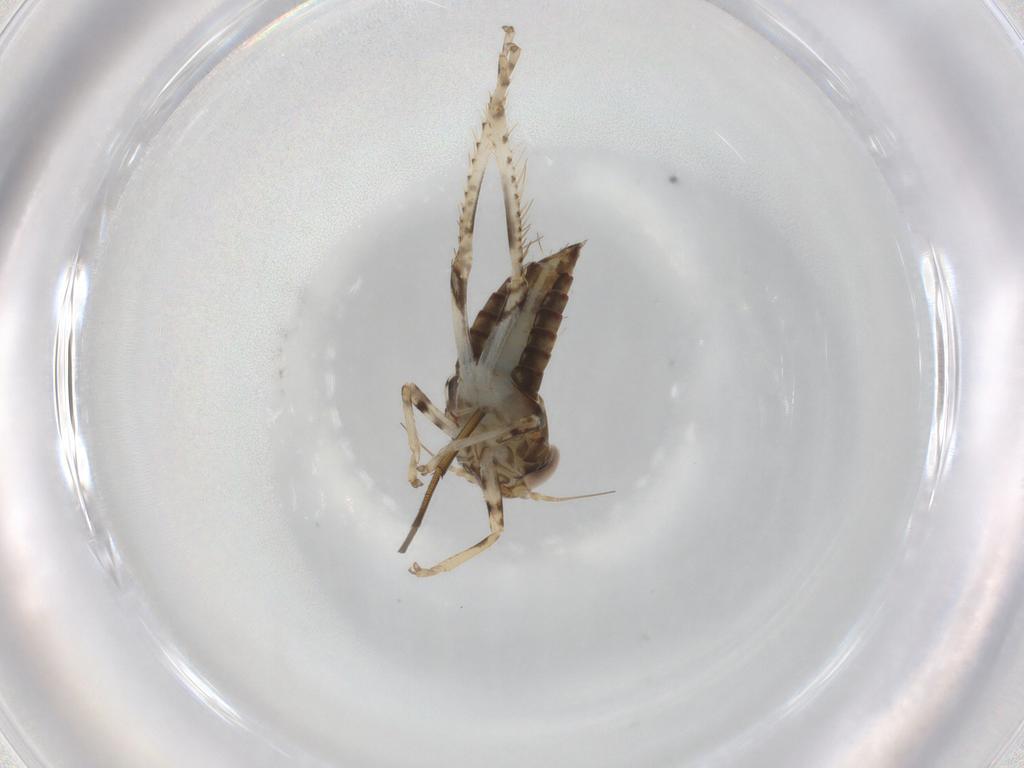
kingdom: Animalia
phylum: Arthropoda
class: Insecta
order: Hemiptera
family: Cicadellidae
